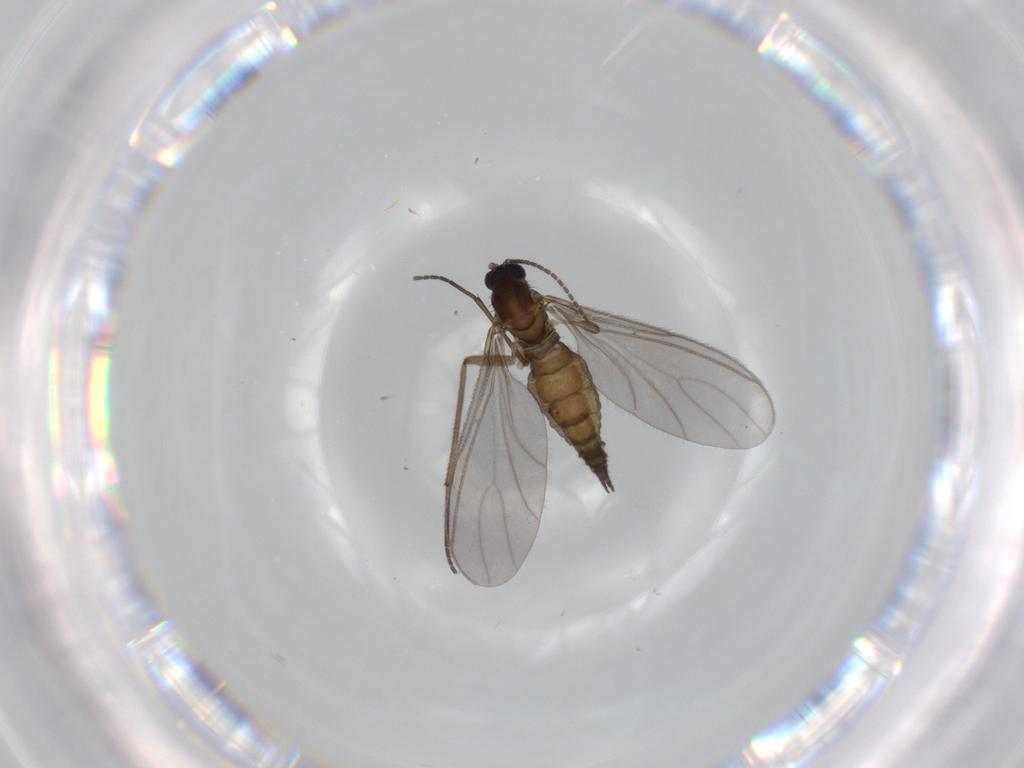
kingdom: Animalia
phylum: Arthropoda
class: Insecta
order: Diptera
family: Sciaridae
